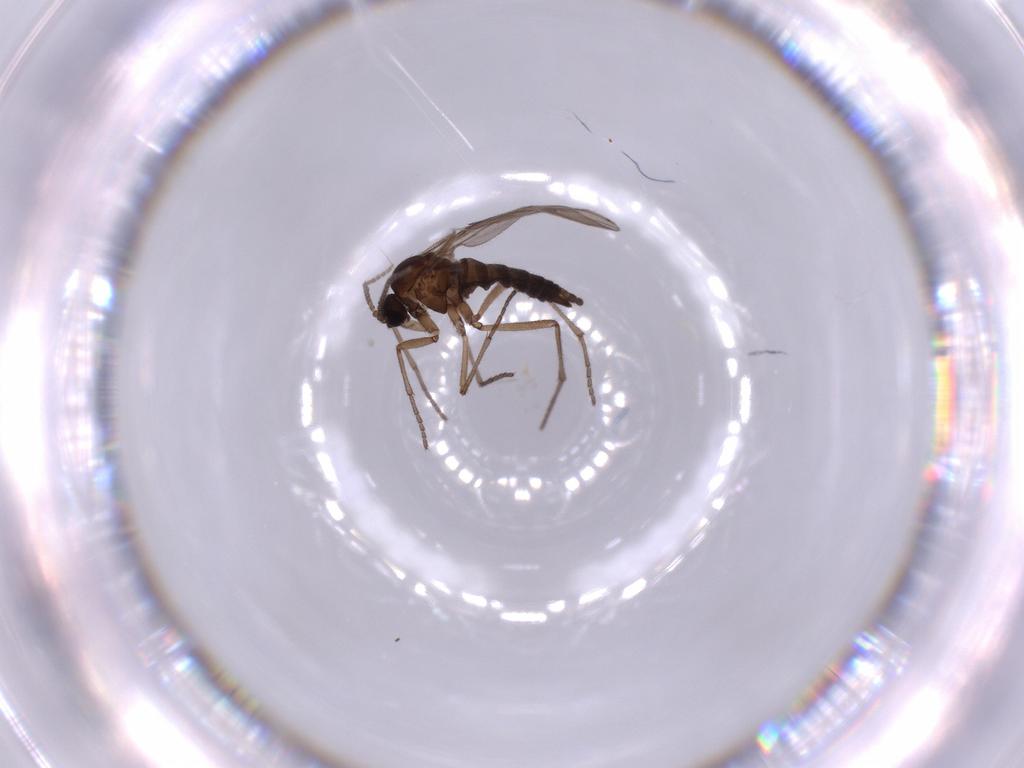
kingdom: Animalia
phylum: Arthropoda
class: Insecta
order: Diptera
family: Sciaridae
